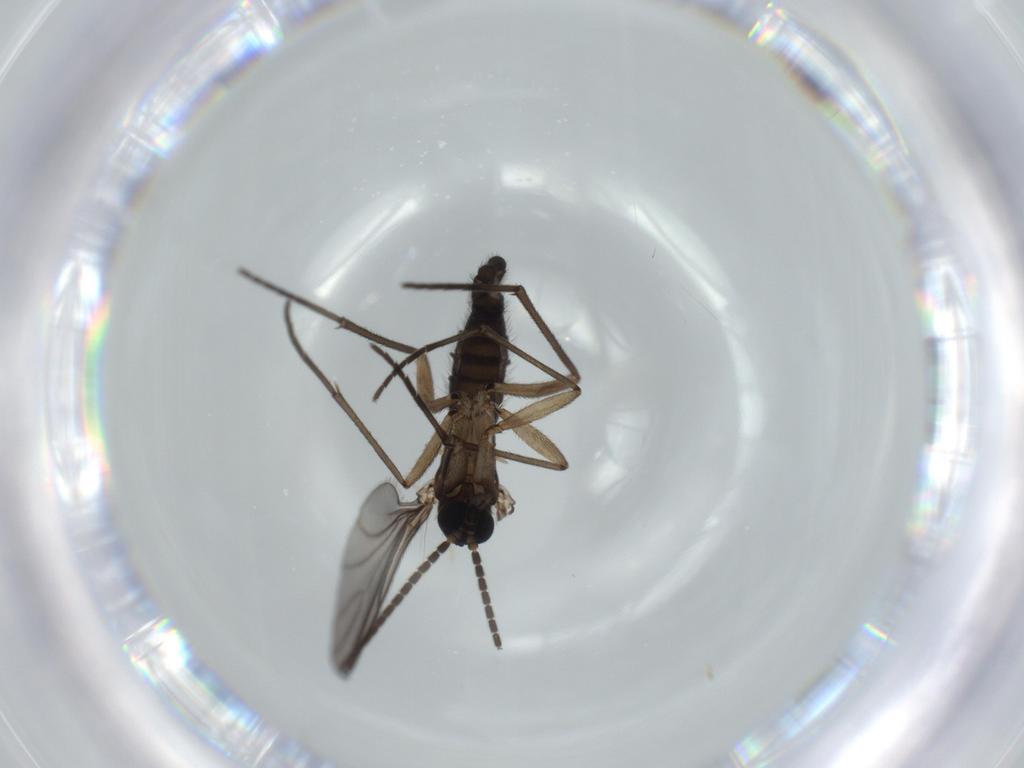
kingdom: Animalia
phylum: Arthropoda
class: Insecta
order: Diptera
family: Sciaridae
